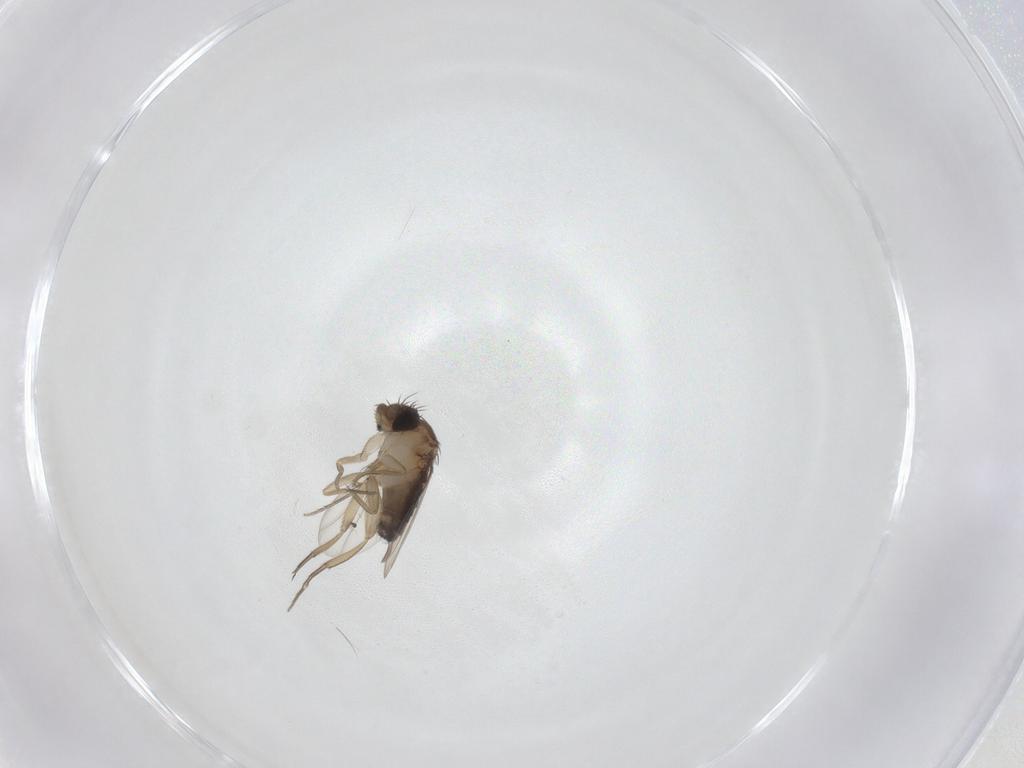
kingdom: Animalia
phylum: Arthropoda
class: Insecta
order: Diptera
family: Phoridae
